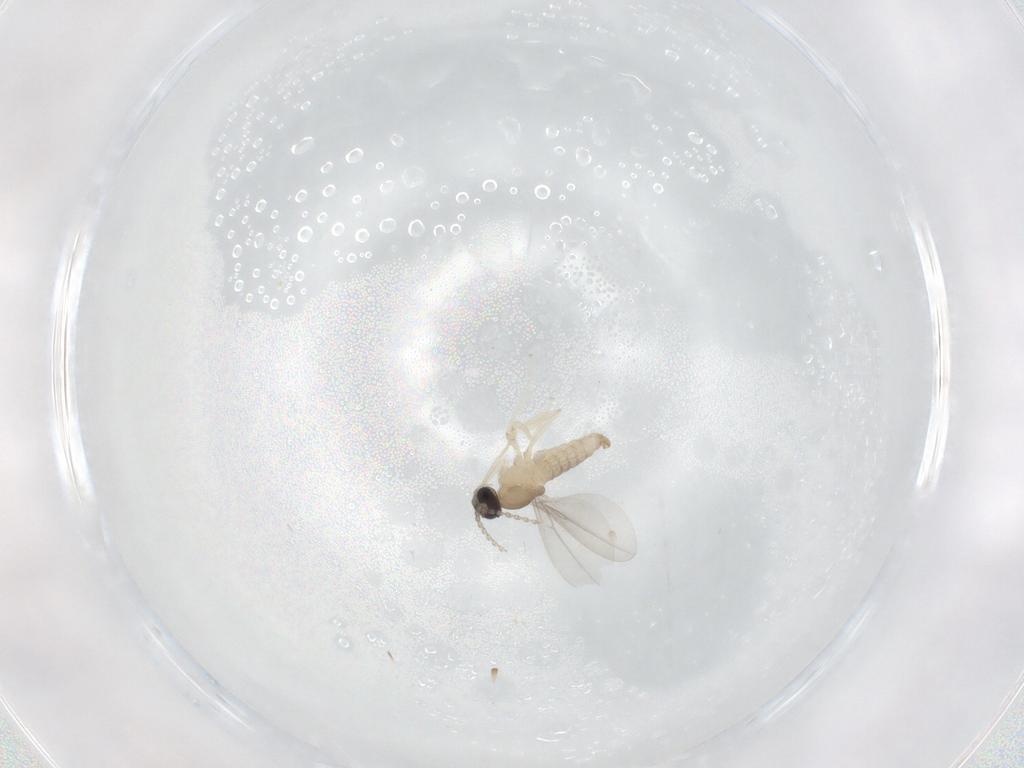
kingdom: Animalia
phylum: Arthropoda
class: Insecta
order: Diptera
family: Cecidomyiidae
